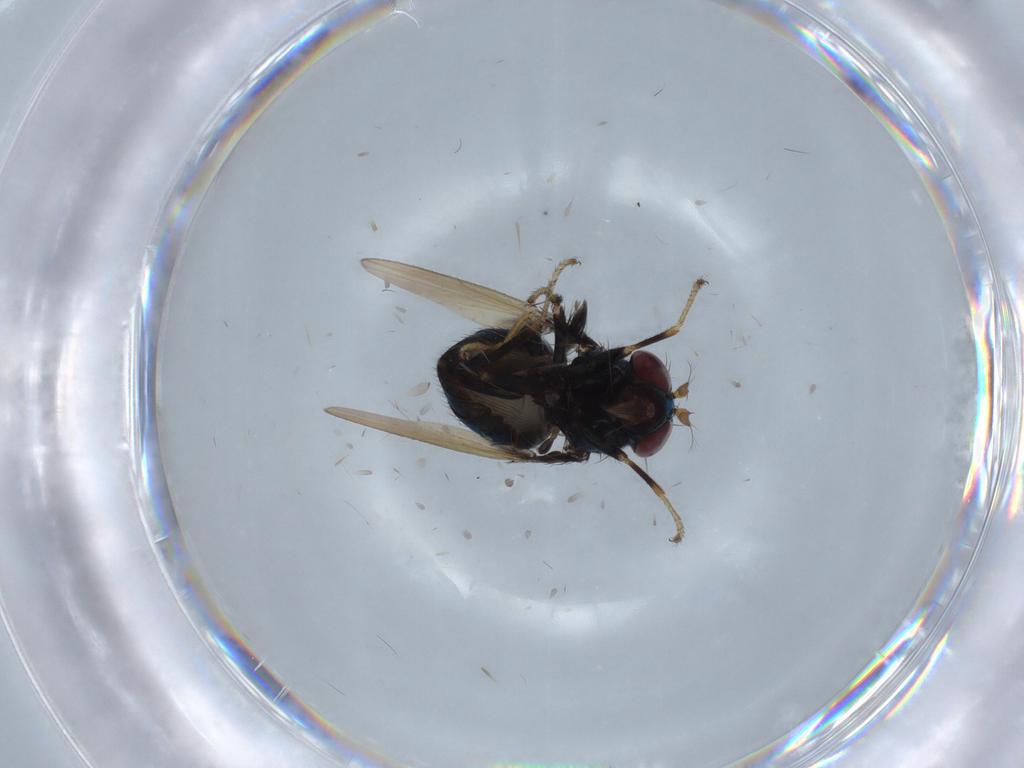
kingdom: Animalia
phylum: Arthropoda
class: Insecta
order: Diptera
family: Ephydridae
